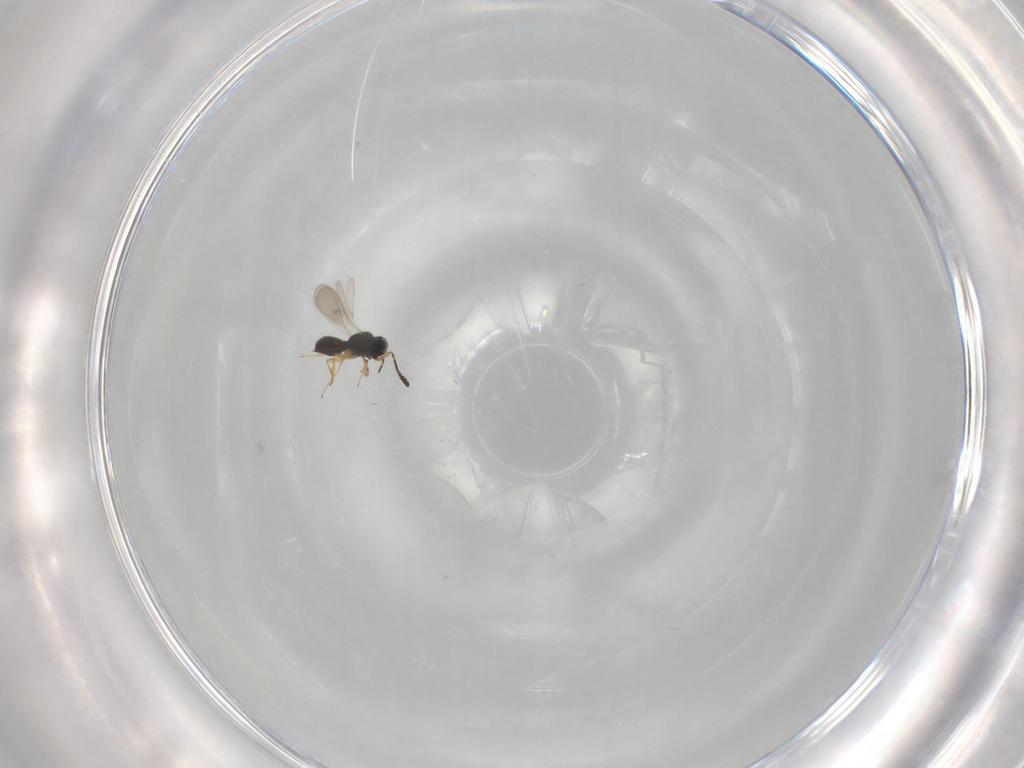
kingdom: Animalia
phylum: Arthropoda
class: Insecta
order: Hymenoptera
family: Scelionidae
